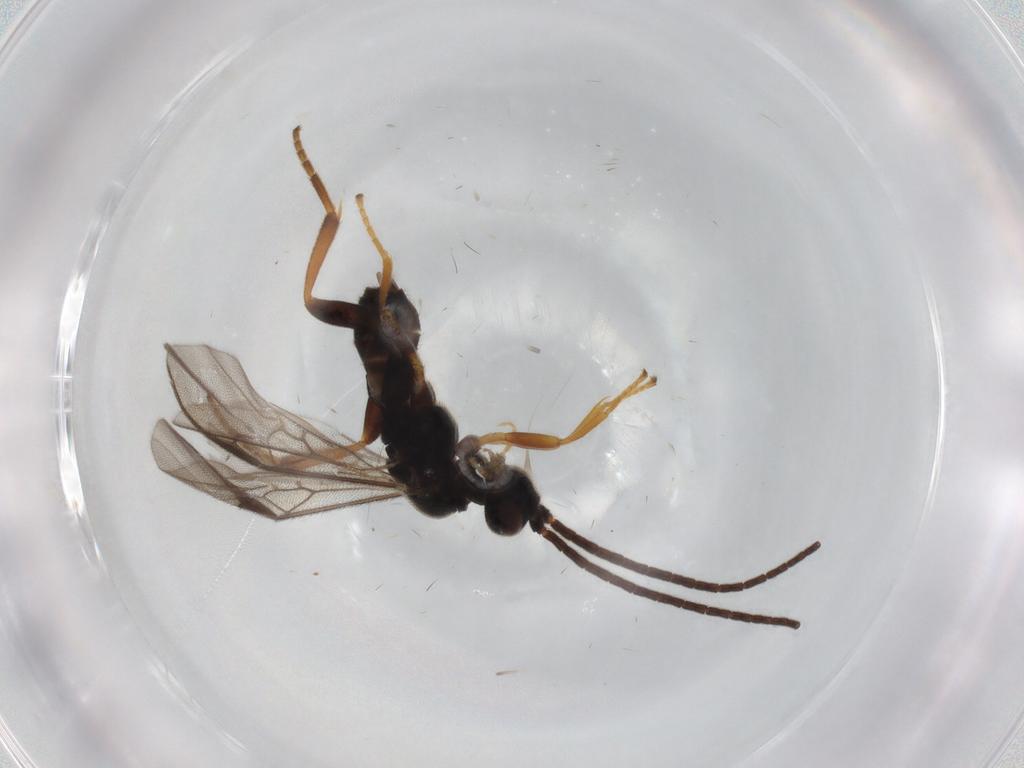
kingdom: Animalia
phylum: Arthropoda
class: Insecta
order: Hymenoptera
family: Braconidae
